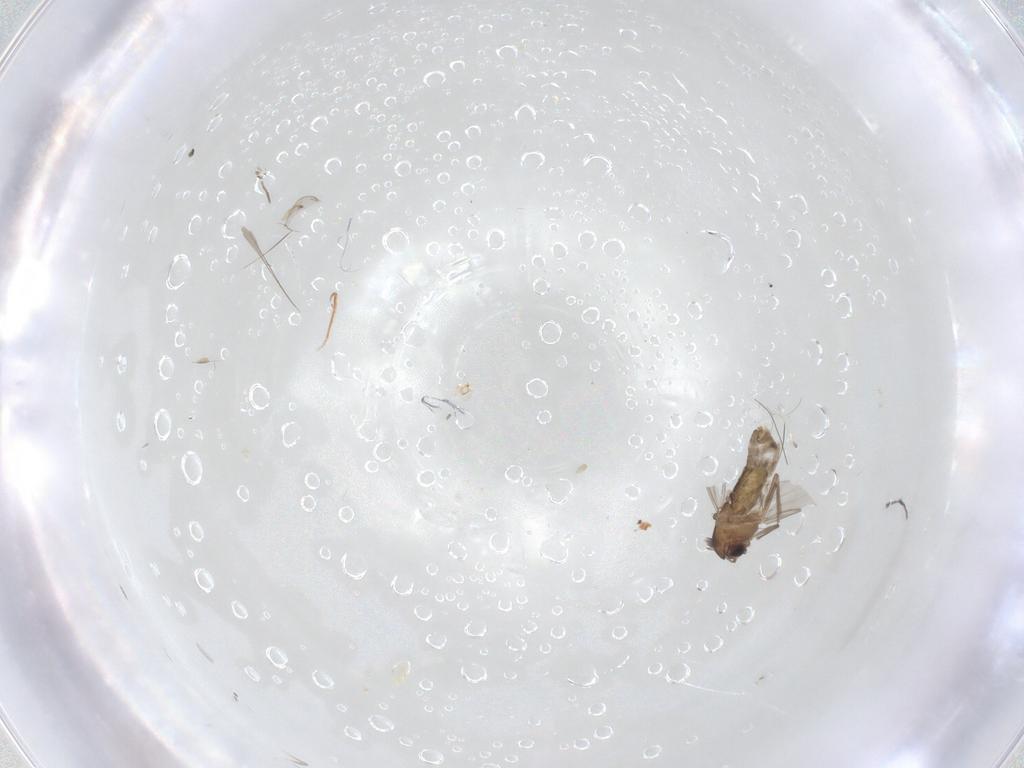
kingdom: Animalia
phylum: Arthropoda
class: Insecta
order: Diptera
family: Chironomidae
